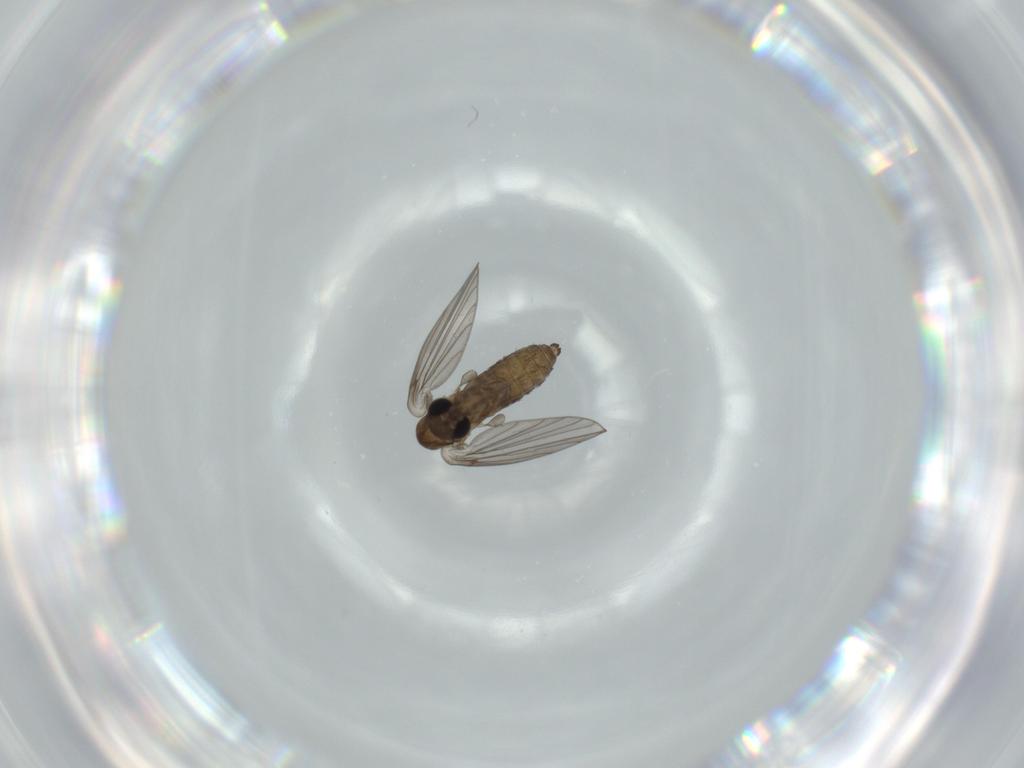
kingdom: Animalia
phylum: Arthropoda
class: Insecta
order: Diptera
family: Psychodidae
